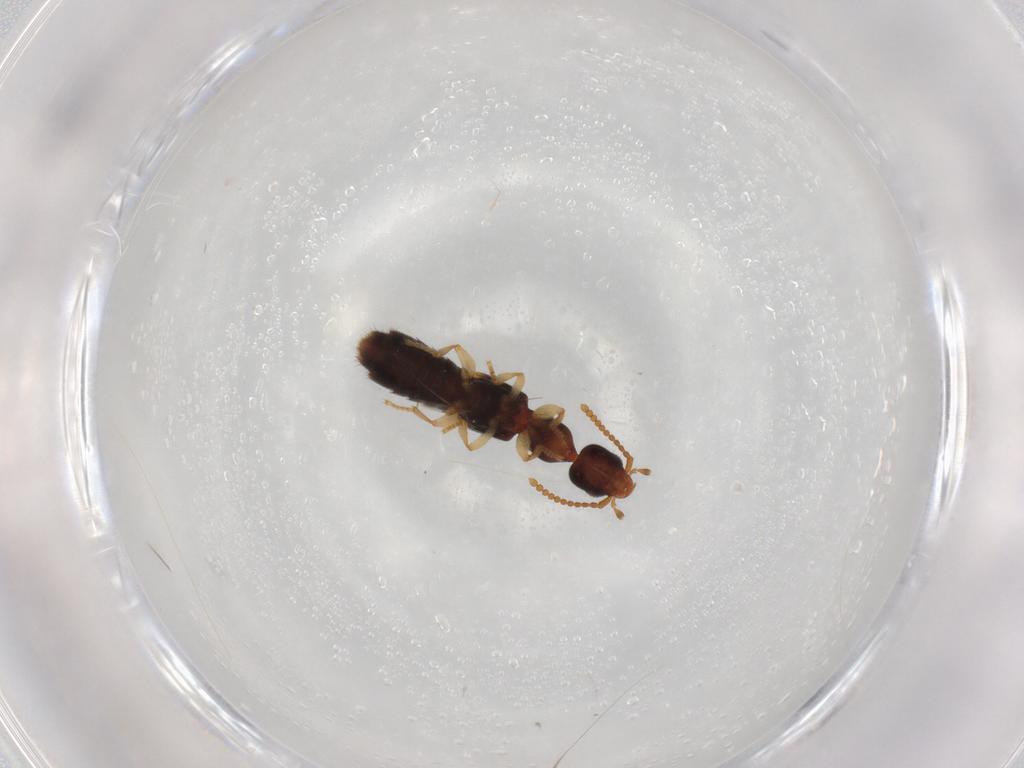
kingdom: Animalia
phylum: Arthropoda
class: Insecta
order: Coleoptera
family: Staphylinidae
